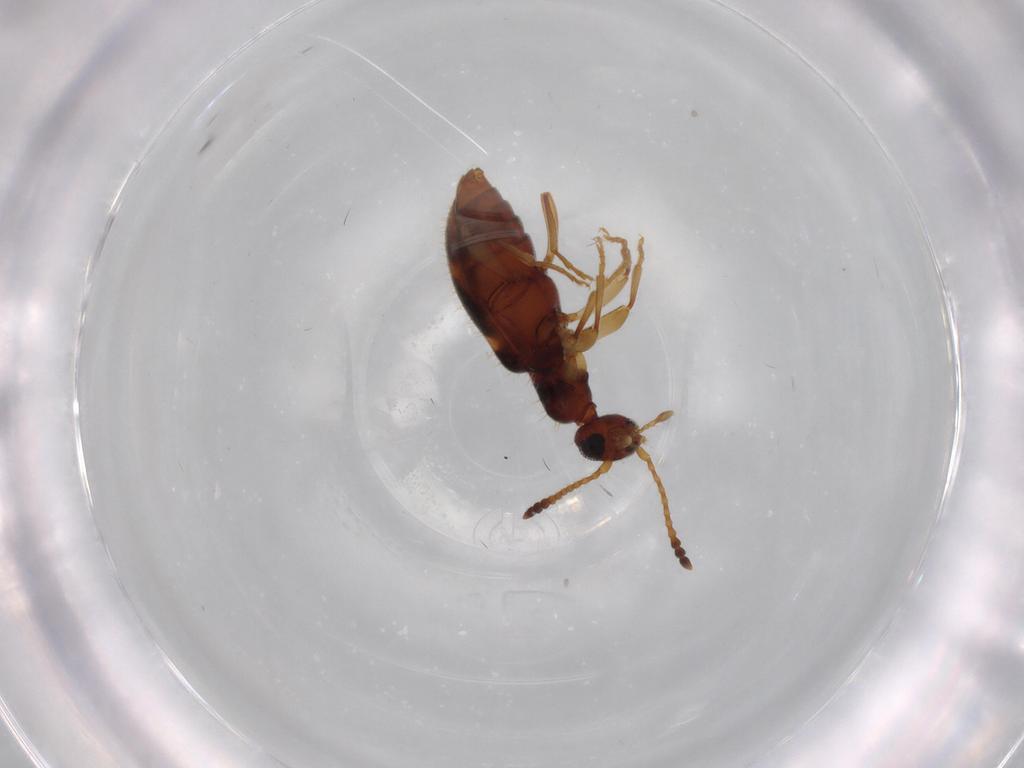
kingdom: Animalia
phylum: Arthropoda
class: Insecta
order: Coleoptera
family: Anthicidae
